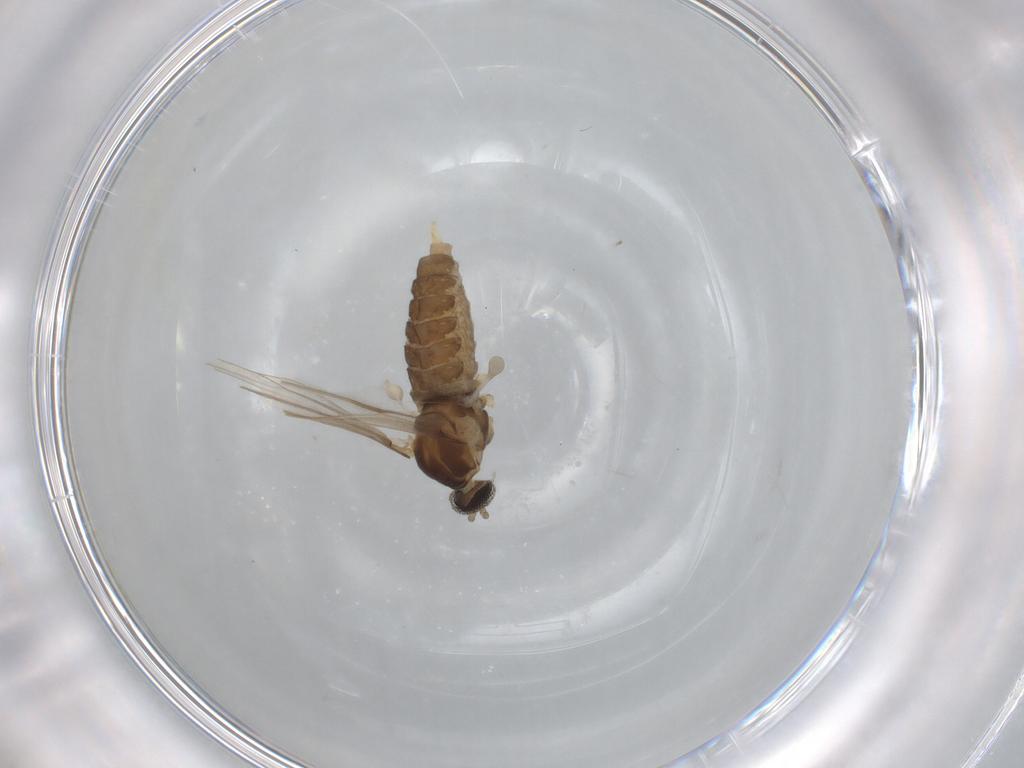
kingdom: Animalia
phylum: Arthropoda
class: Insecta
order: Diptera
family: Cecidomyiidae
